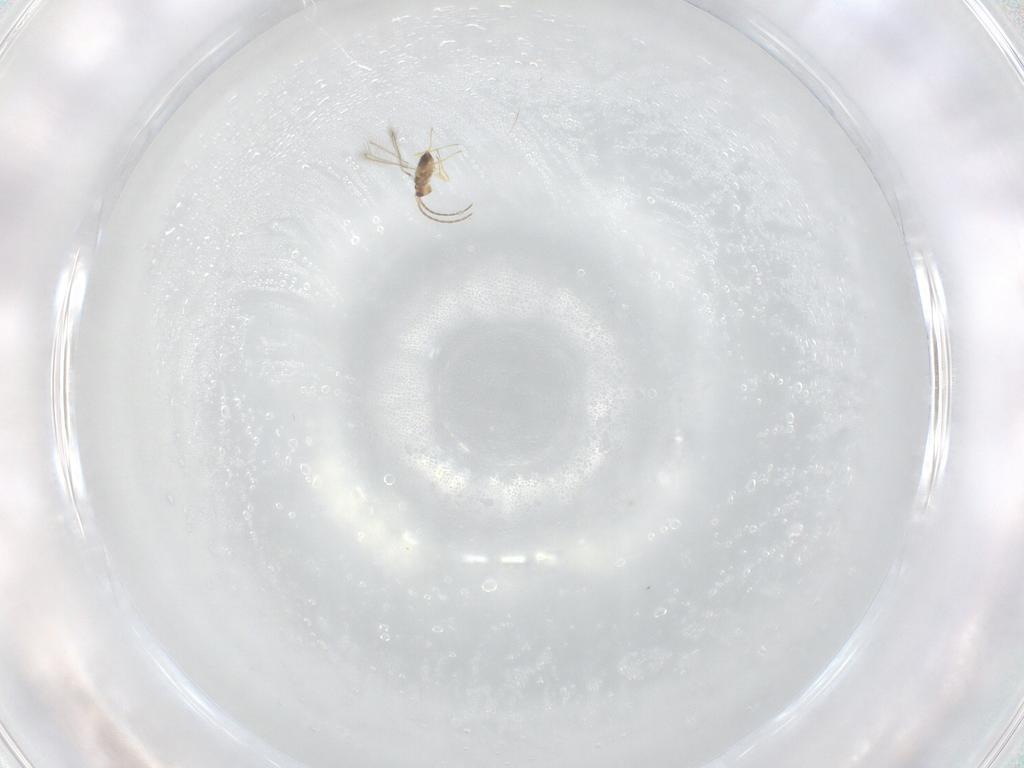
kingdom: Animalia
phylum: Arthropoda
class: Insecta
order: Hymenoptera
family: Mymaridae
